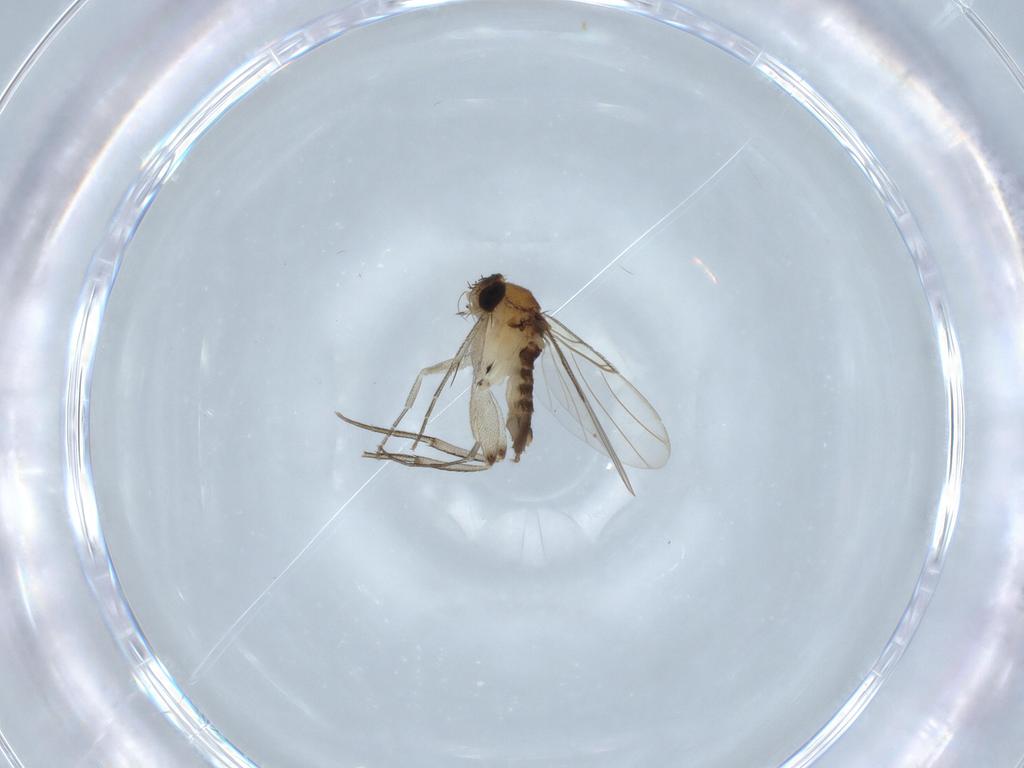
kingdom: Animalia
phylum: Arthropoda
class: Insecta
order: Diptera
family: Phoridae
